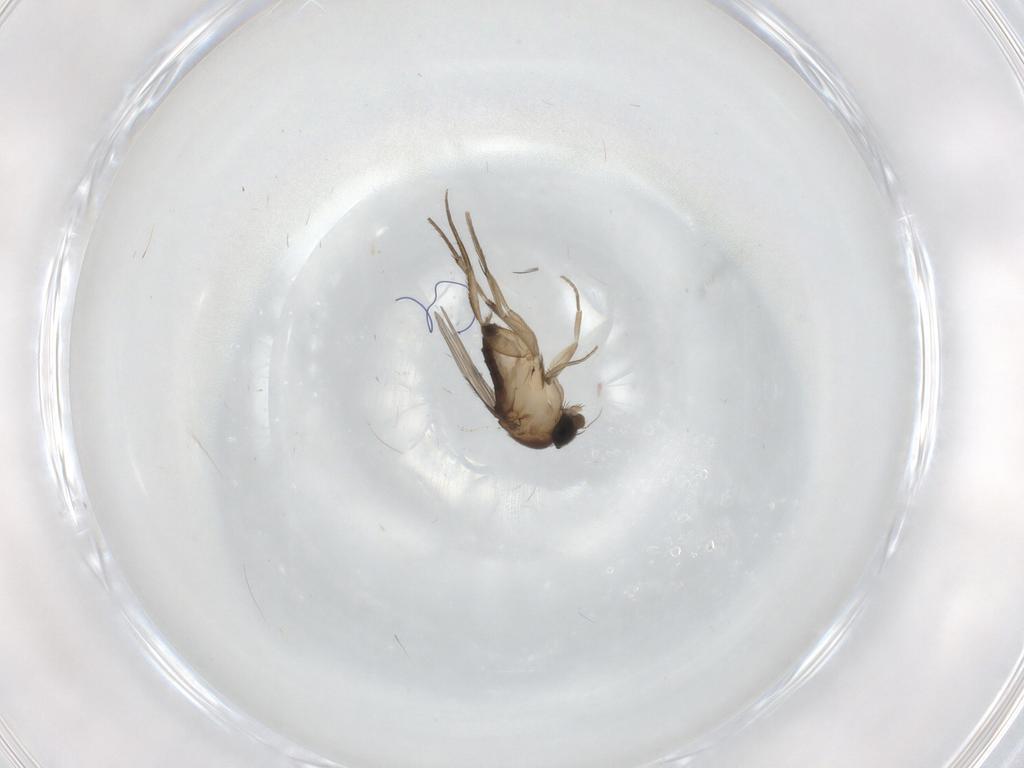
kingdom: Animalia
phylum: Arthropoda
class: Insecta
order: Diptera
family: Phoridae
